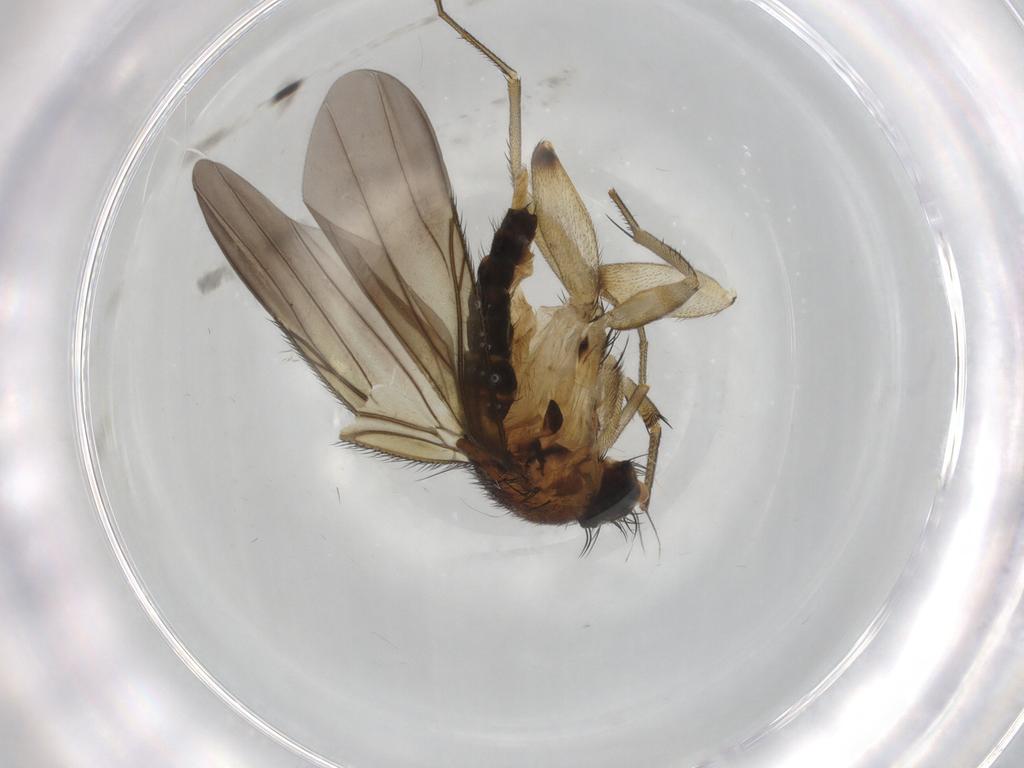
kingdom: Animalia
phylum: Arthropoda
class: Insecta
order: Diptera
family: Phoridae
